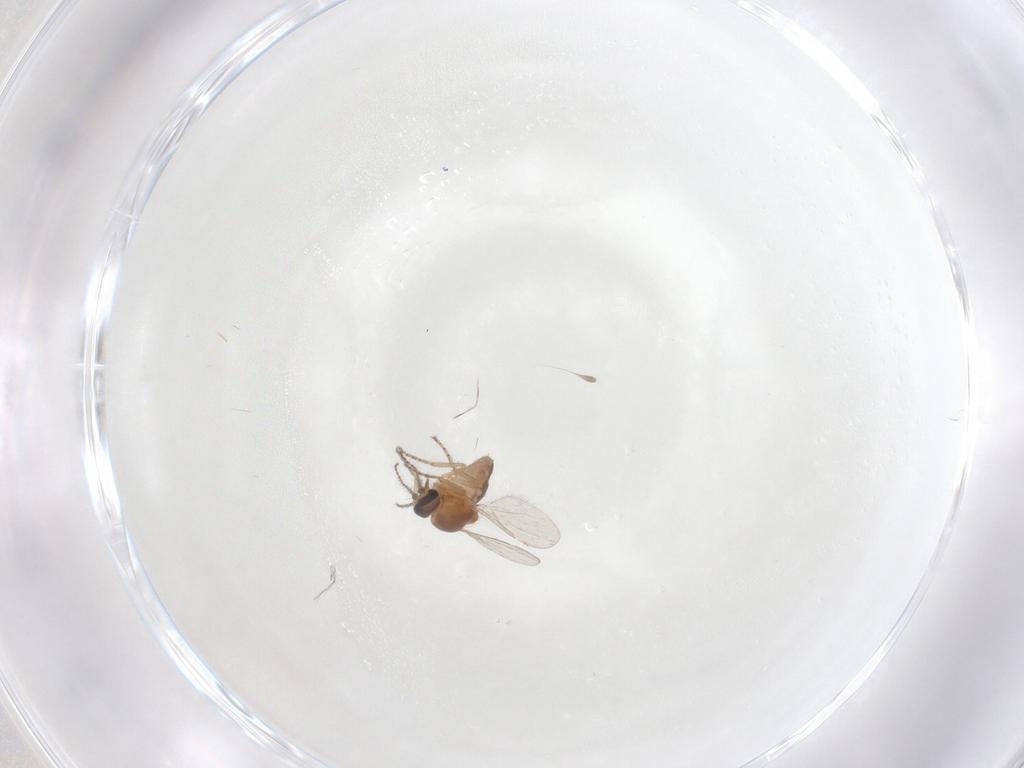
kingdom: Animalia
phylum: Arthropoda
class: Insecta
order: Diptera
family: Ceratopogonidae
